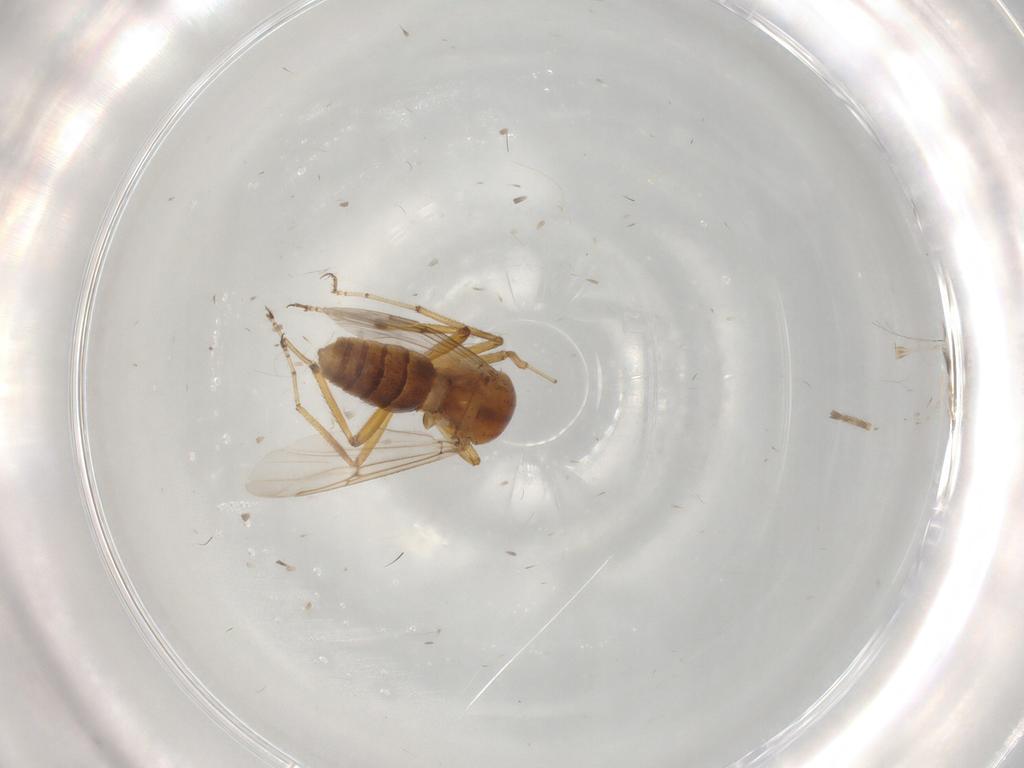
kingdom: Animalia
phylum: Arthropoda
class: Insecta
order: Diptera
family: Ceratopogonidae
